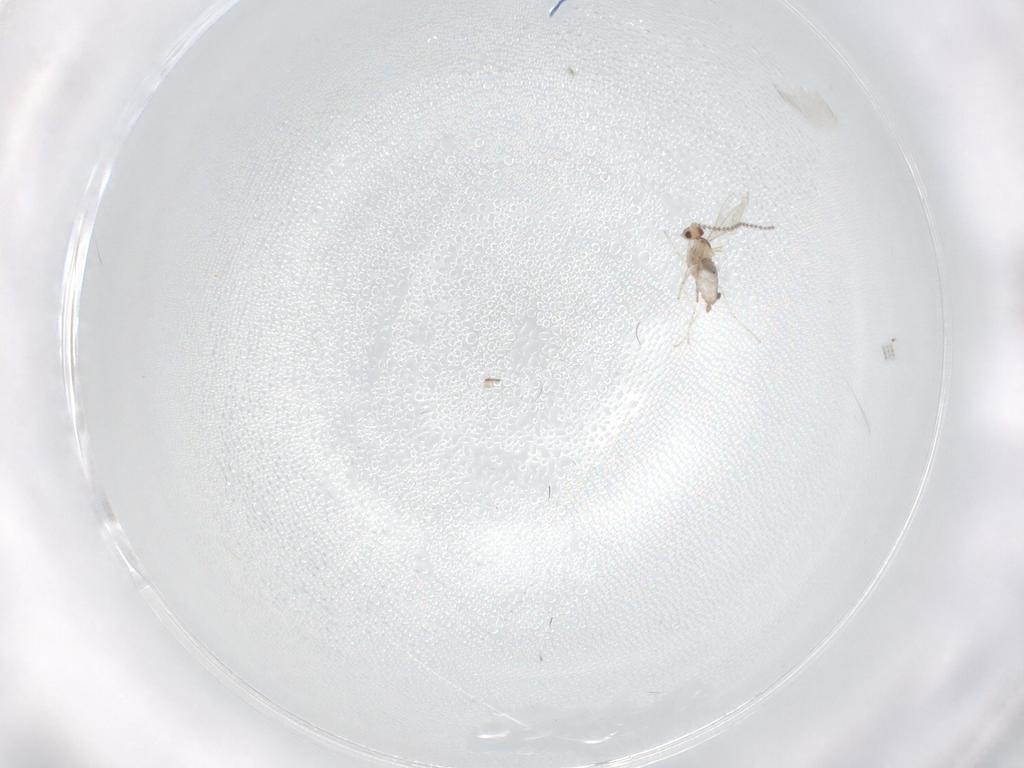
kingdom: Animalia
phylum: Arthropoda
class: Insecta
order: Diptera
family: Cecidomyiidae
